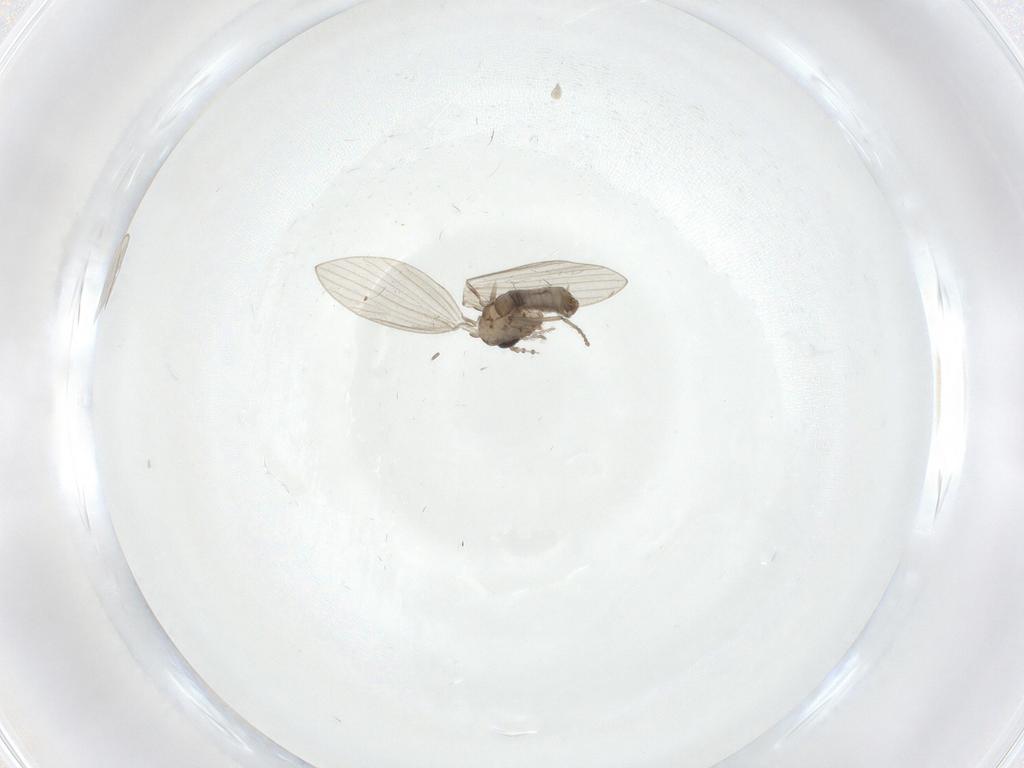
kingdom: Animalia
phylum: Arthropoda
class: Insecta
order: Diptera
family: Psychodidae
